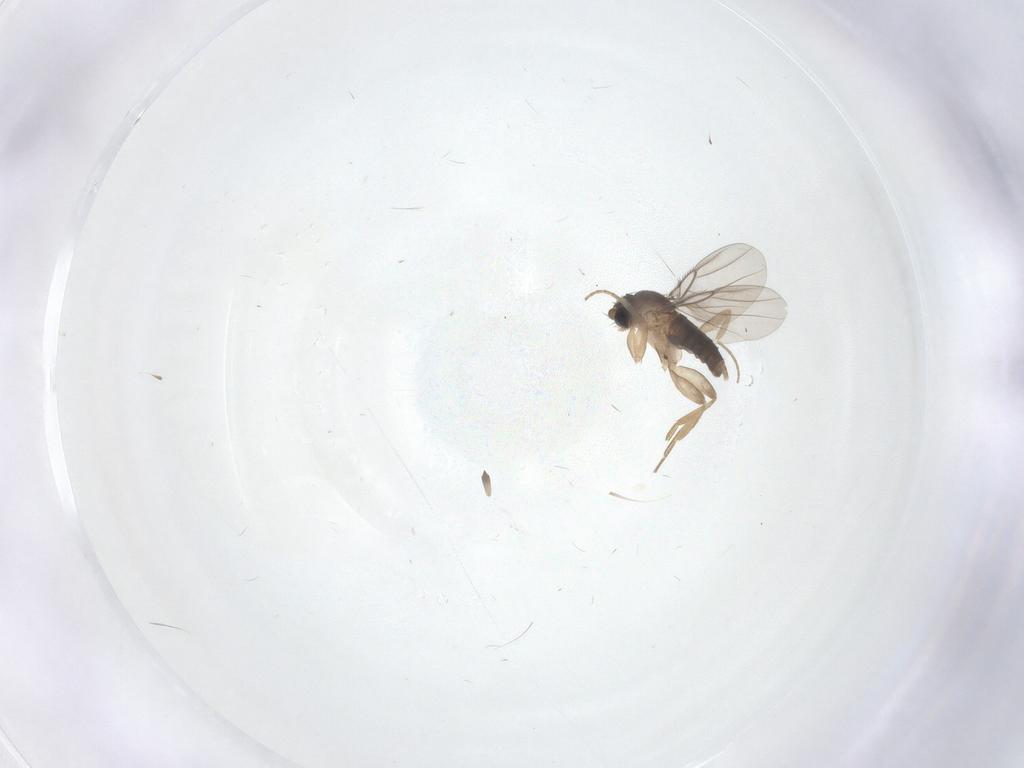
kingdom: Animalia
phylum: Arthropoda
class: Insecta
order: Diptera
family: Phoridae
